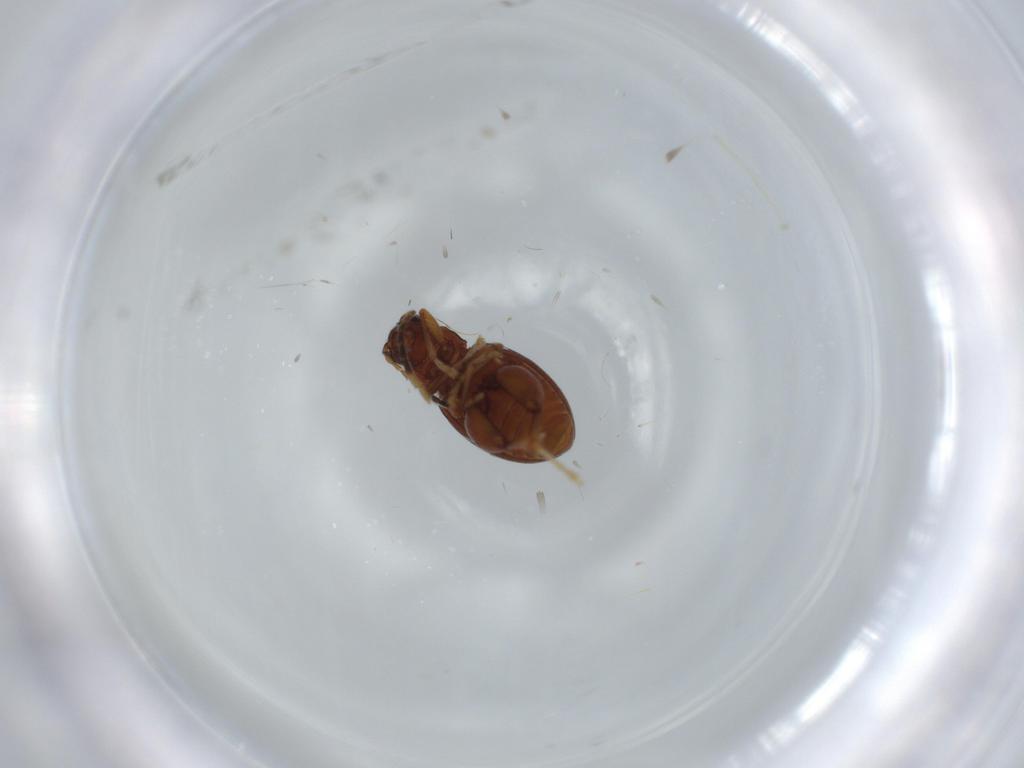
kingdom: Animalia
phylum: Arthropoda
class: Insecta
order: Coleoptera
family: Chrysomelidae
